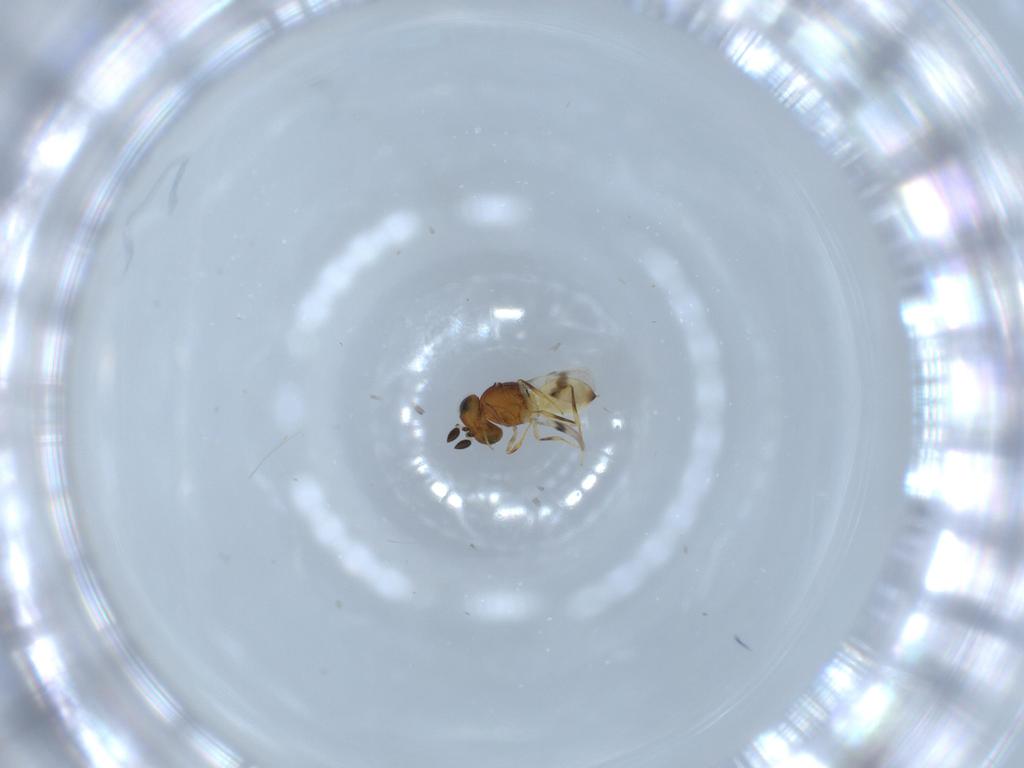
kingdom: Animalia
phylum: Arthropoda
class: Arachnida
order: Araneae
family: Pholcidae
